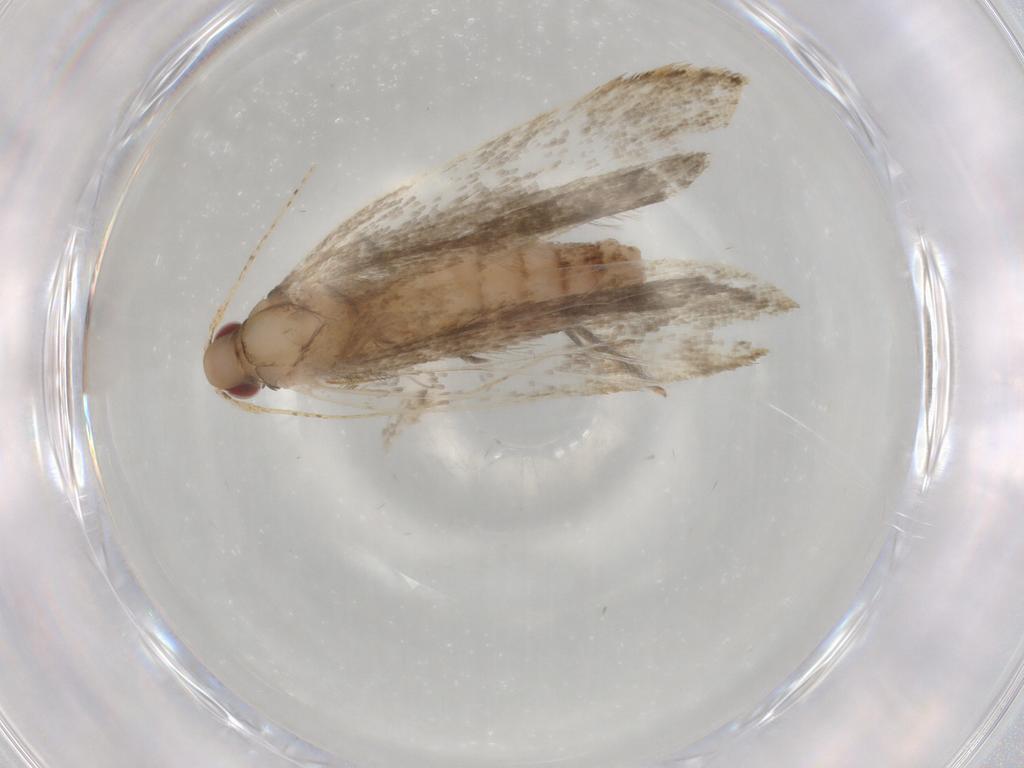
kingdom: Animalia
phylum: Arthropoda
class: Insecta
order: Lepidoptera
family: Gelechiidae
